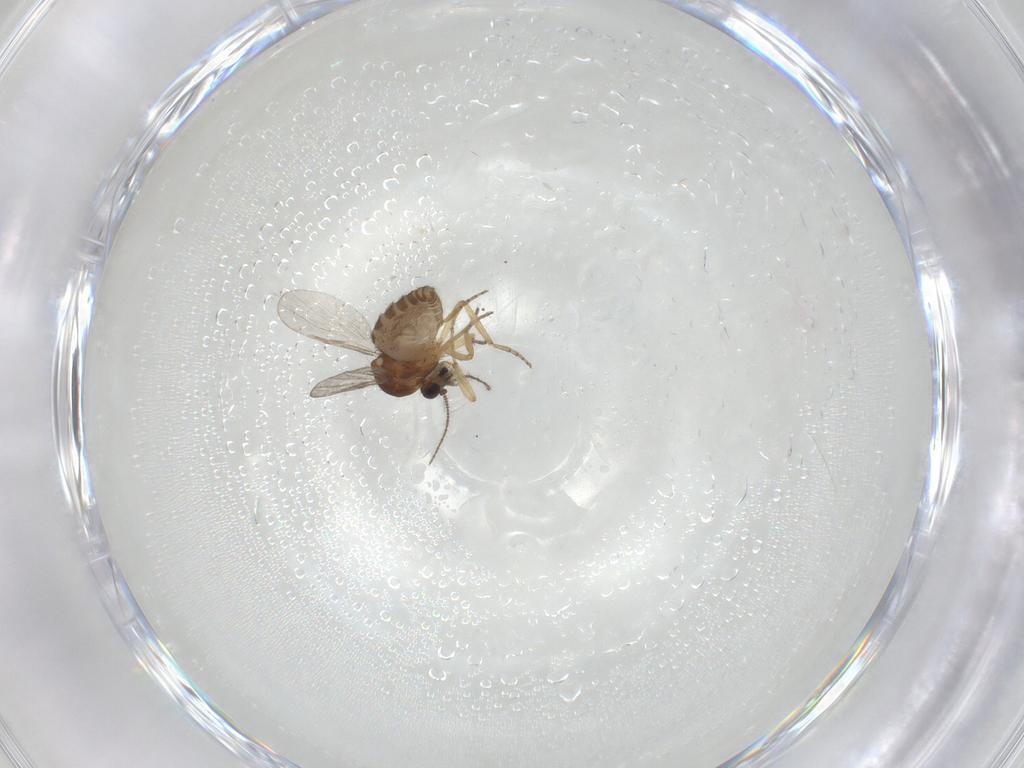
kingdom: Animalia
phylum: Arthropoda
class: Insecta
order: Diptera
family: Ceratopogonidae
